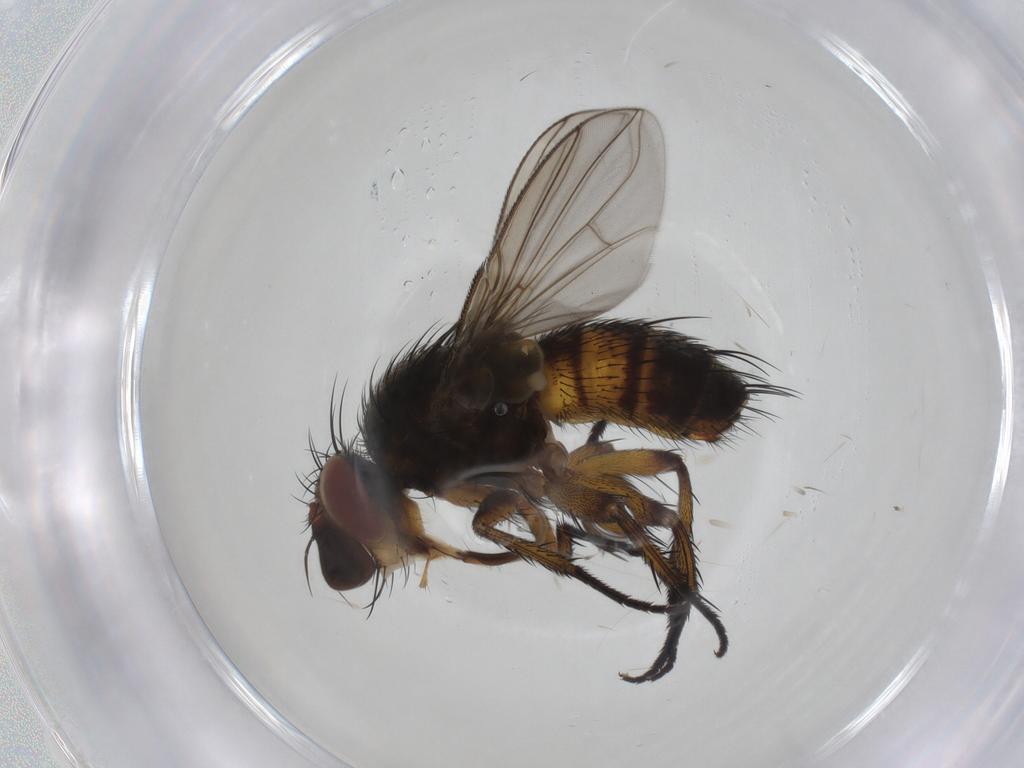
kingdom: Animalia
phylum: Arthropoda
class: Insecta
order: Diptera
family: Tachinidae
